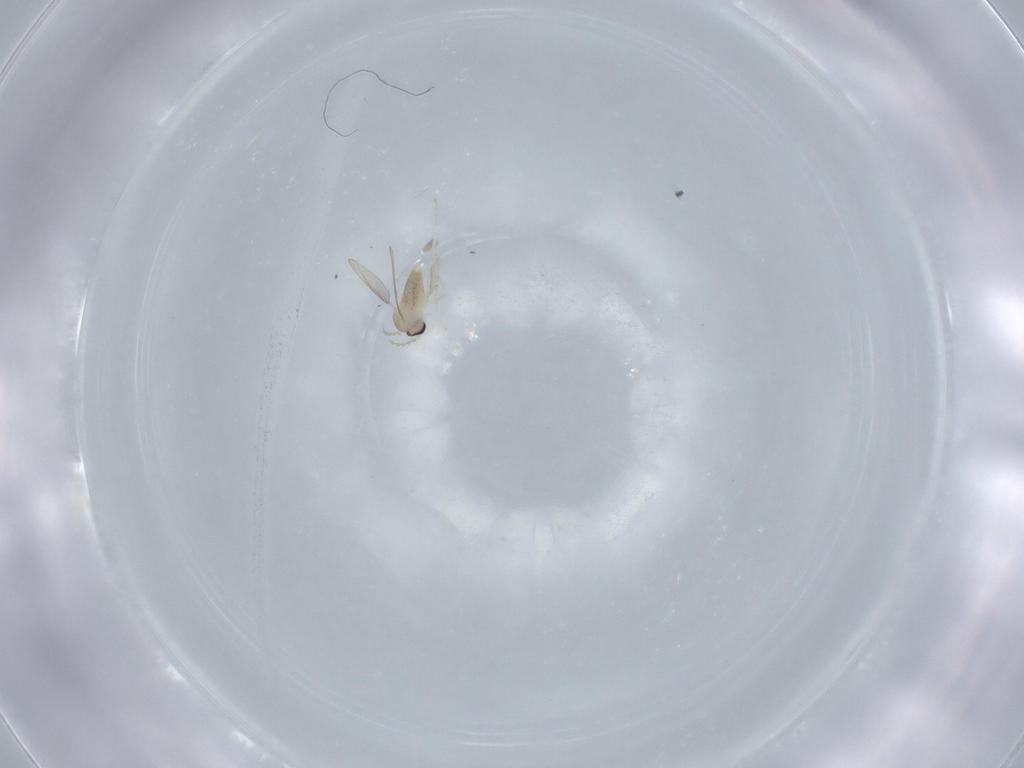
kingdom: Animalia
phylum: Arthropoda
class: Insecta
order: Diptera
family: Cecidomyiidae
